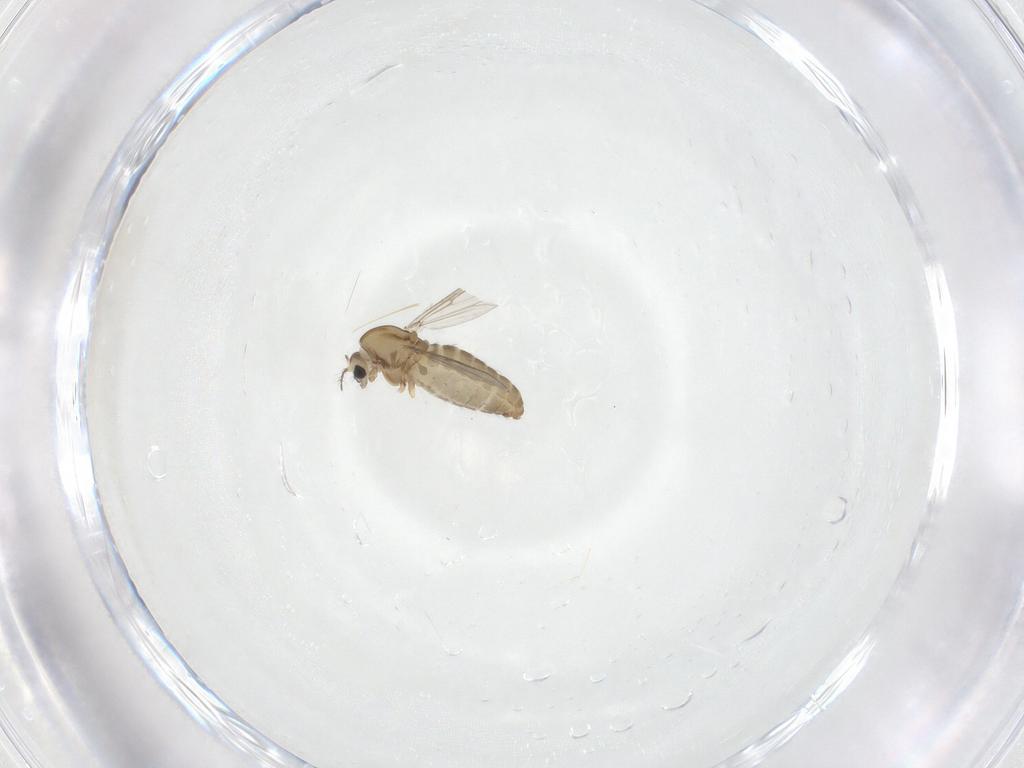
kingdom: Animalia
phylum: Arthropoda
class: Insecta
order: Diptera
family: Chironomidae
